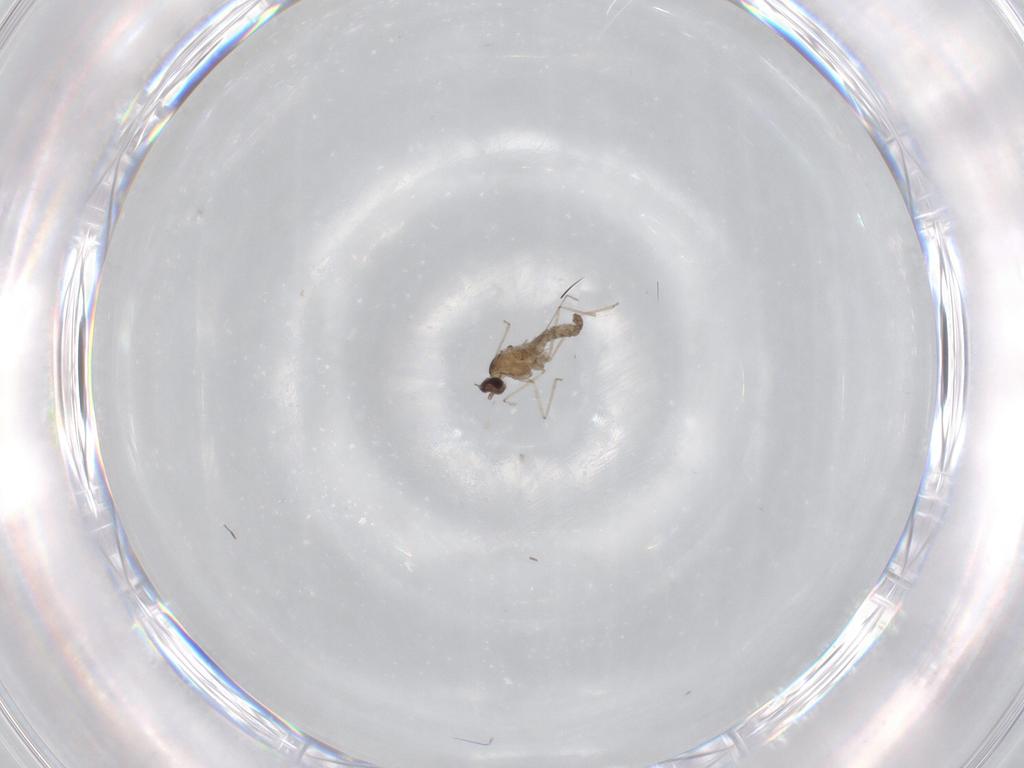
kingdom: Animalia
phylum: Arthropoda
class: Insecta
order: Diptera
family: Cecidomyiidae
